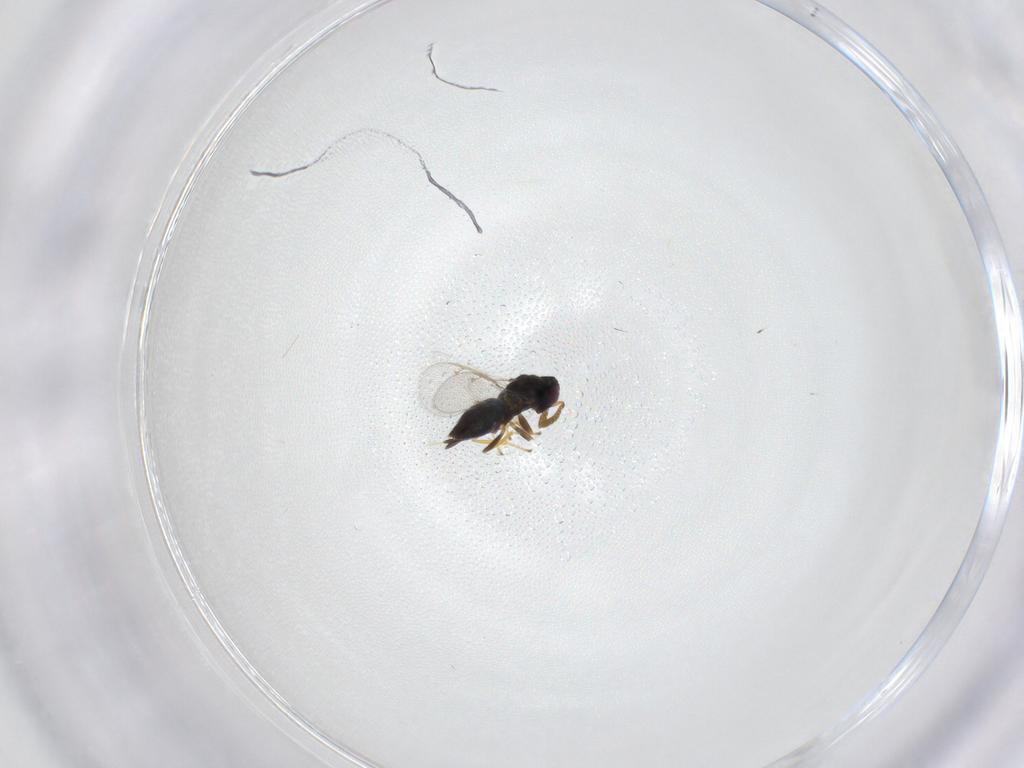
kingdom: Animalia
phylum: Arthropoda
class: Insecta
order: Hymenoptera
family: Pirenidae
